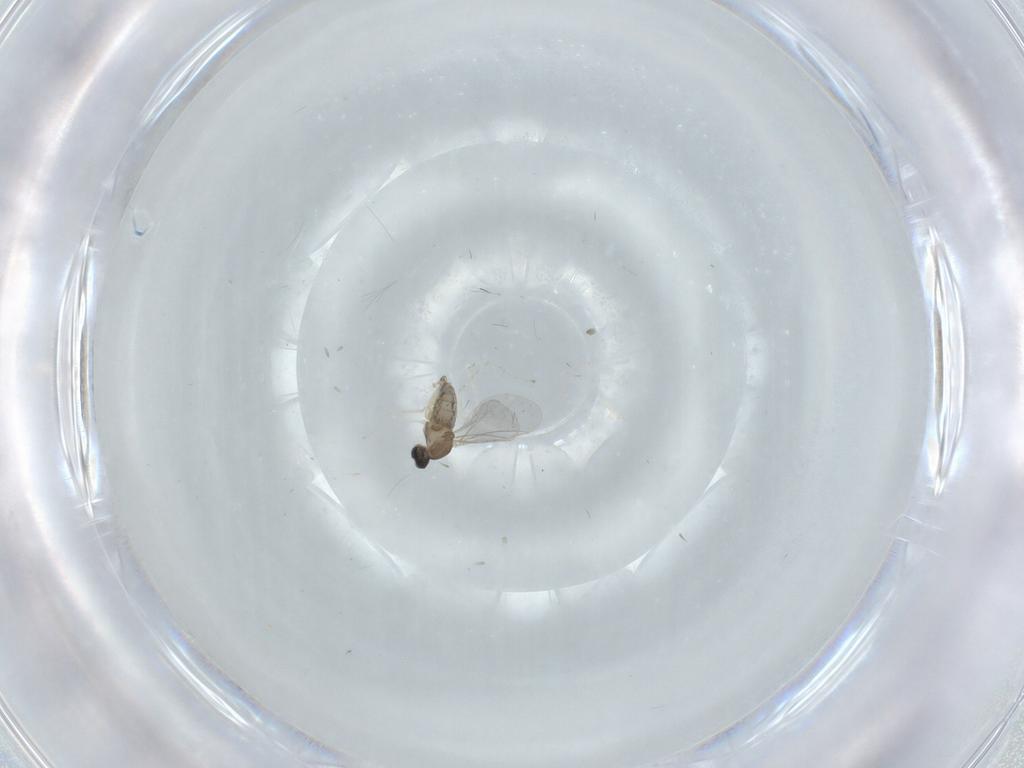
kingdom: Animalia
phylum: Arthropoda
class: Insecta
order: Diptera
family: Cecidomyiidae
